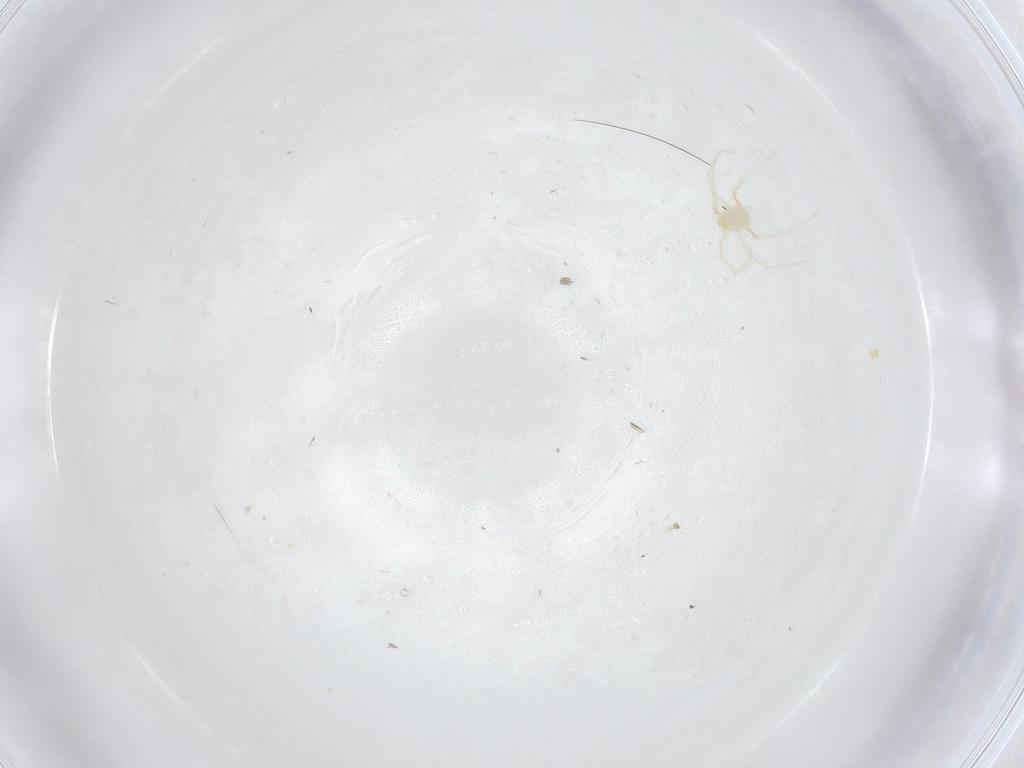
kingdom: Animalia
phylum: Arthropoda
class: Arachnida
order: Trombidiformes
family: Erythraeidae
